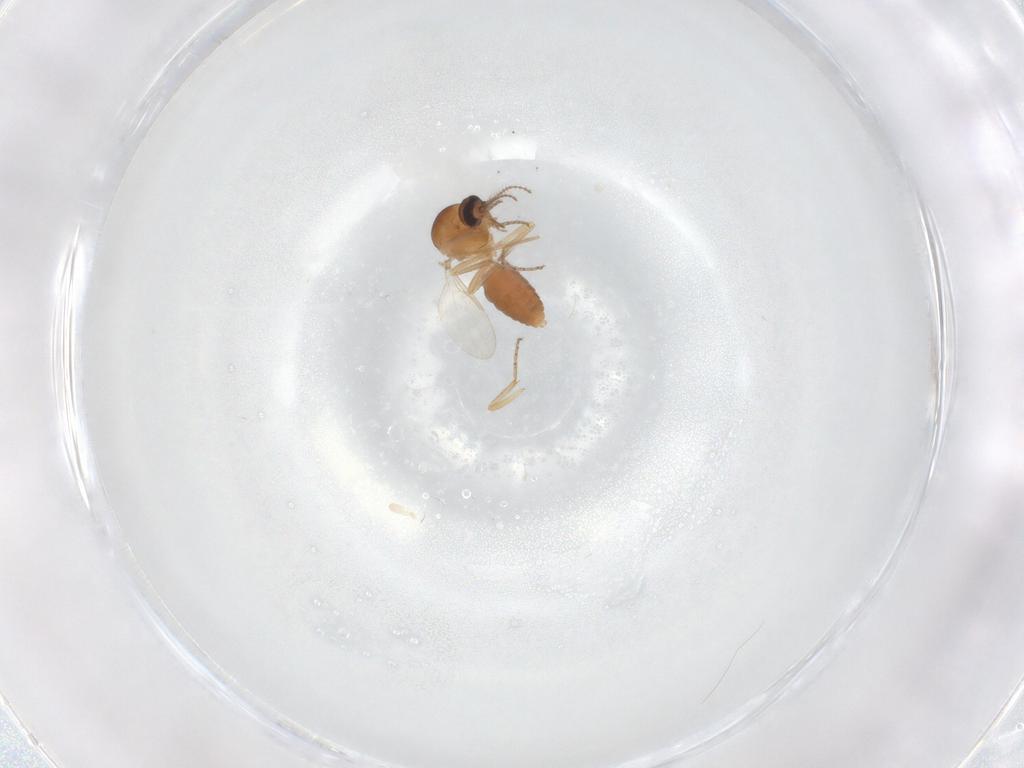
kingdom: Animalia
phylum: Arthropoda
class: Insecta
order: Diptera
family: Ceratopogonidae
